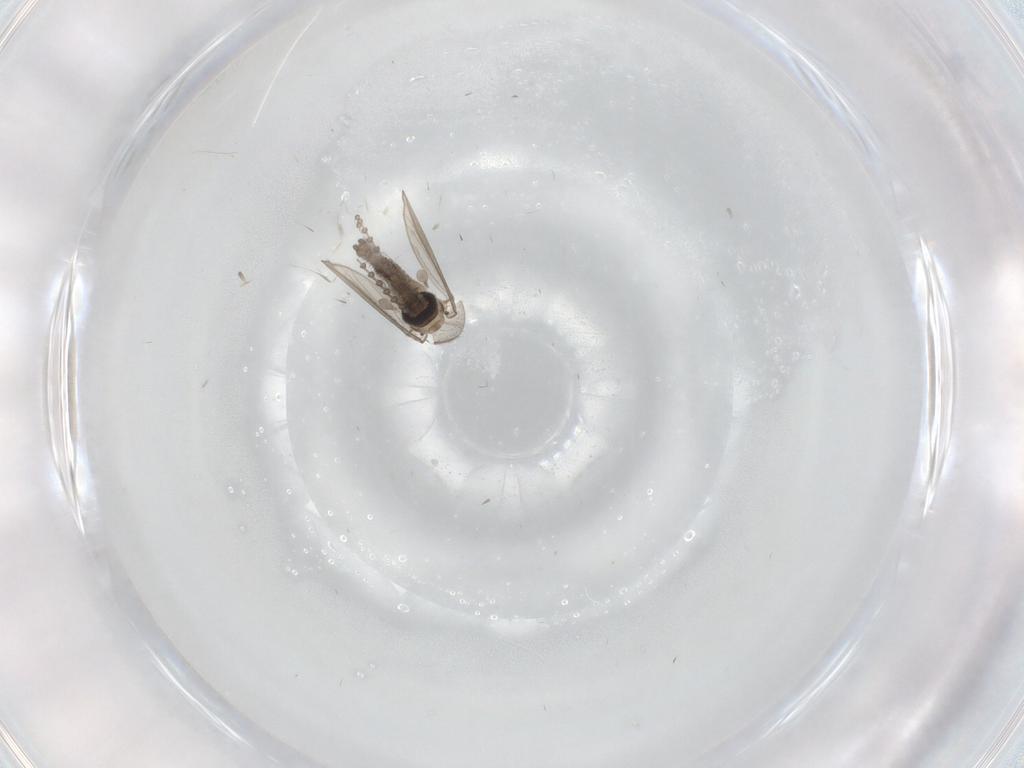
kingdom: Animalia
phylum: Arthropoda
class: Insecta
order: Diptera
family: Psychodidae
